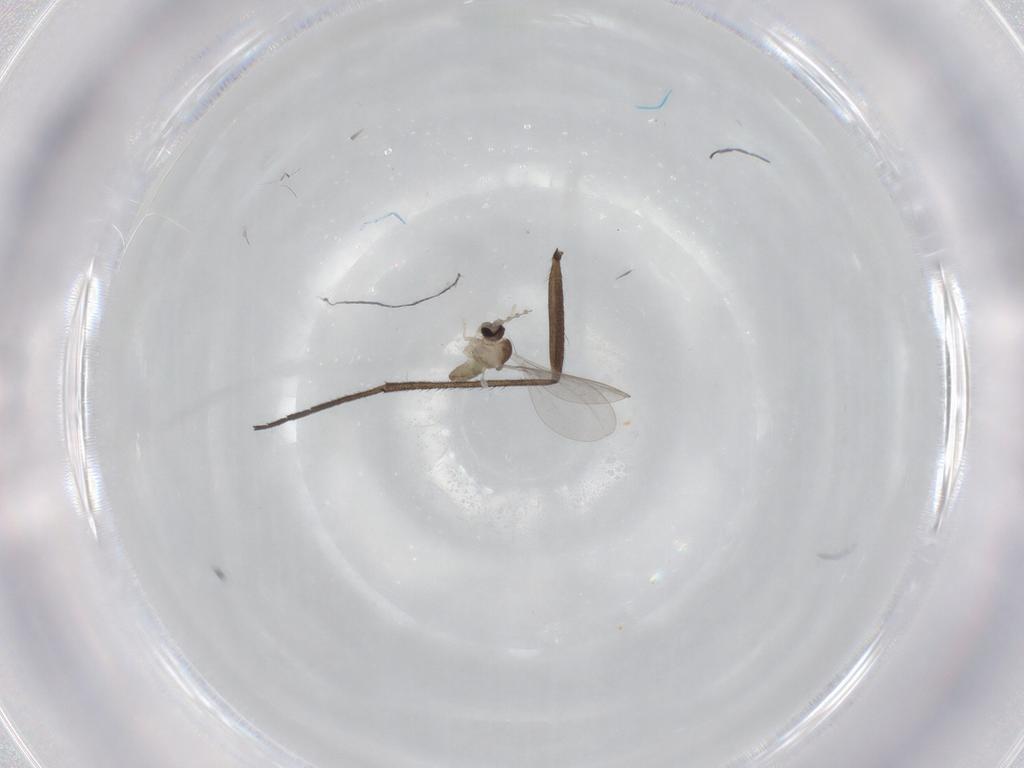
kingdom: Animalia
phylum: Arthropoda
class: Insecta
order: Diptera
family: Cecidomyiidae
